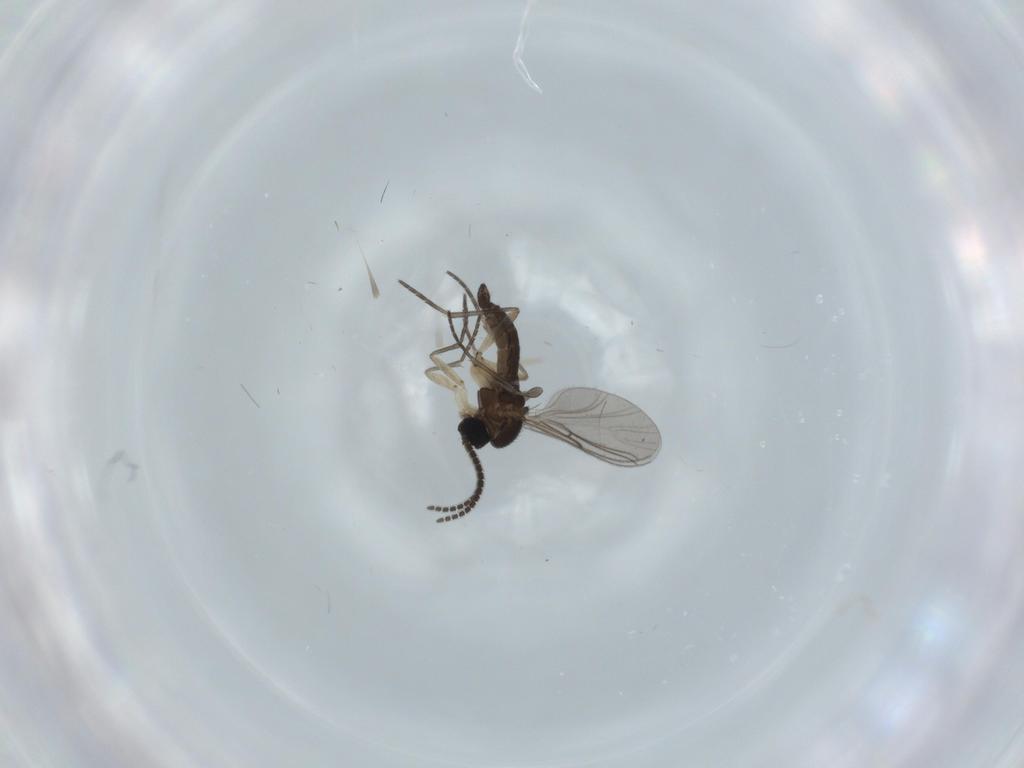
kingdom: Animalia
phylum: Arthropoda
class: Insecta
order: Diptera
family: Sciaridae
